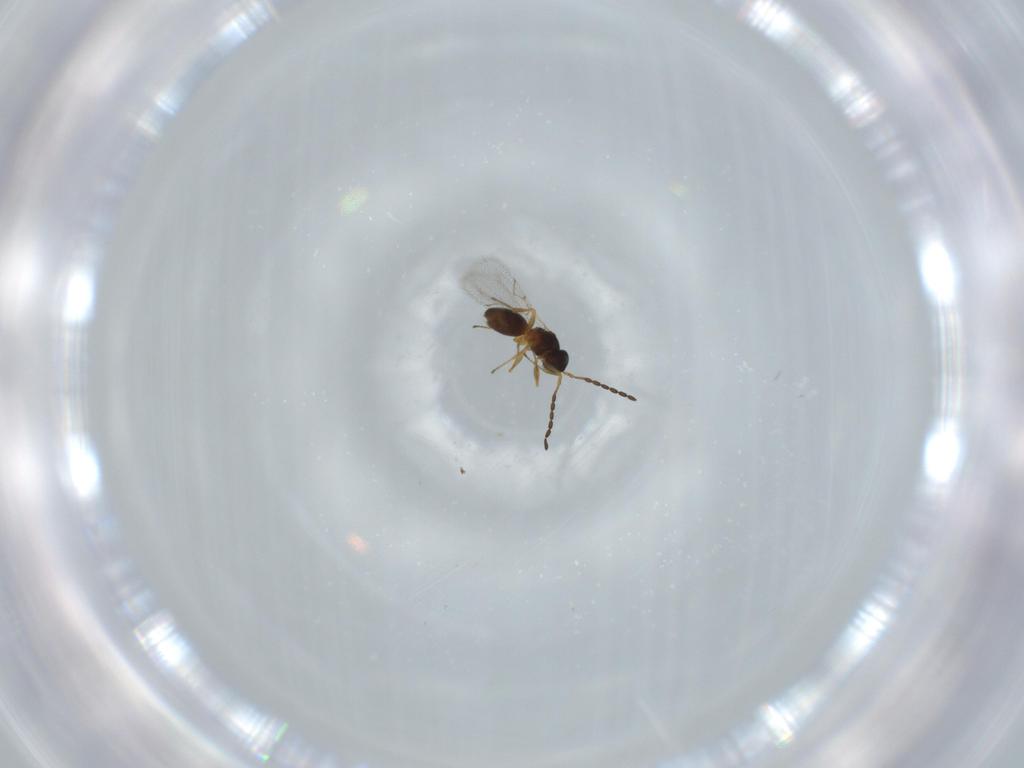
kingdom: Animalia
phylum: Arthropoda
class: Insecta
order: Hymenoptera
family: Figitidae
